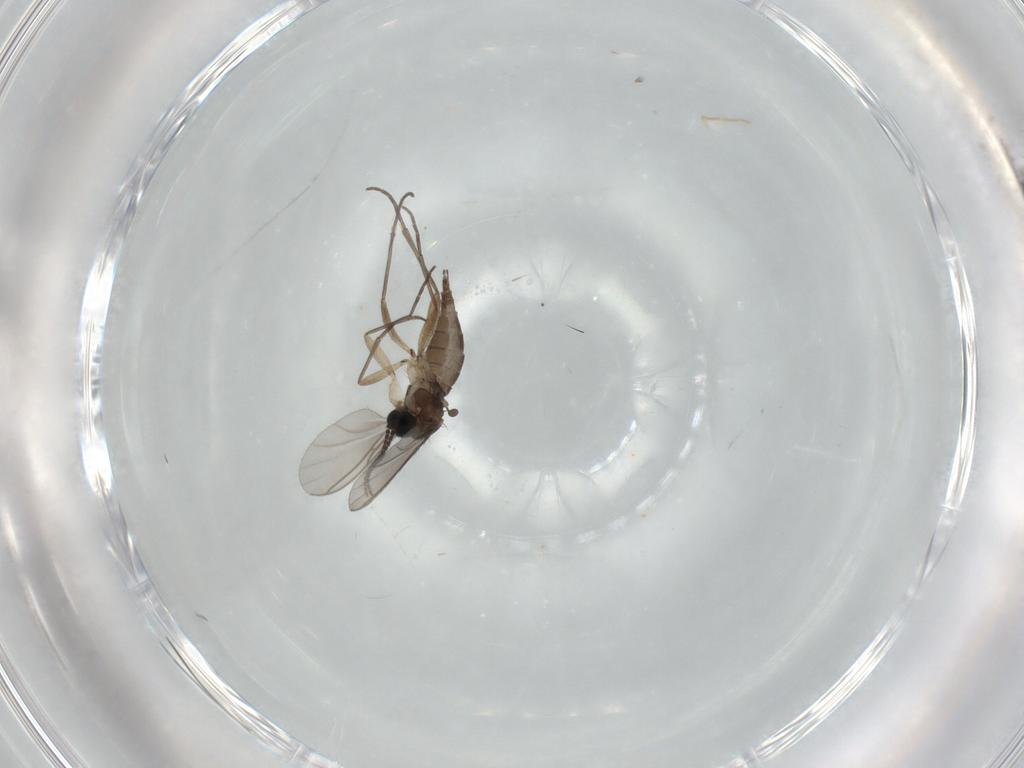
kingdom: Animalia
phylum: Arthropoda
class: Insecta
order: Diptera
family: Sciaridae
